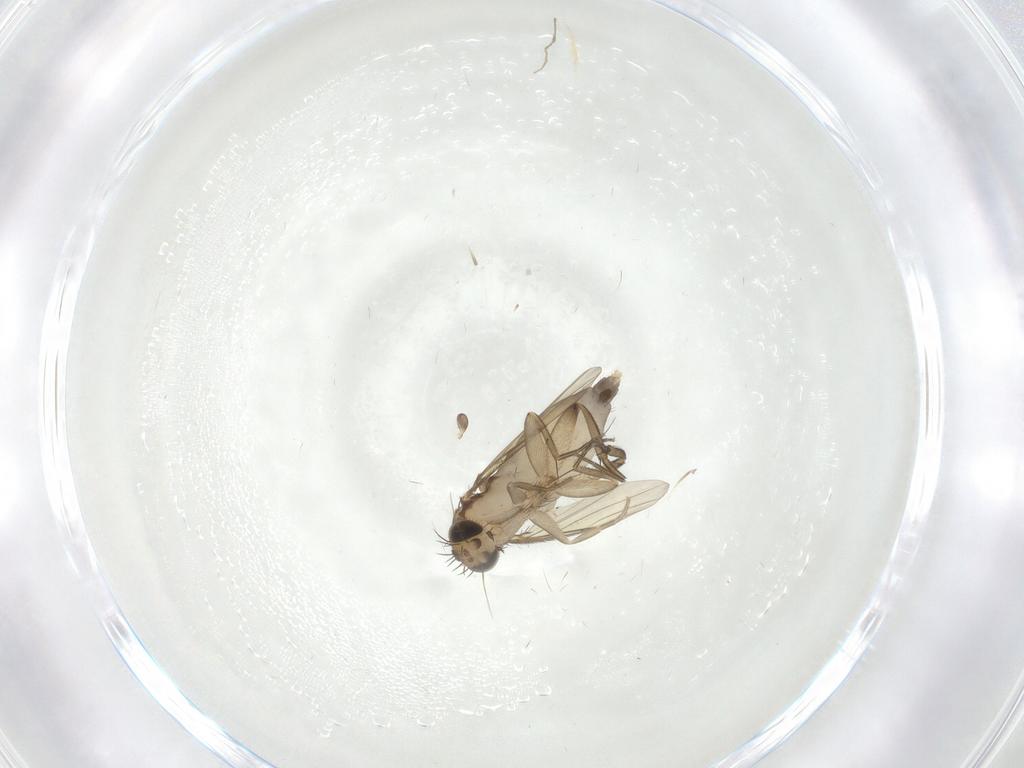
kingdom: Animalia
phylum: Arthropoda
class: Insecta
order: Diptera
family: Phoridae
